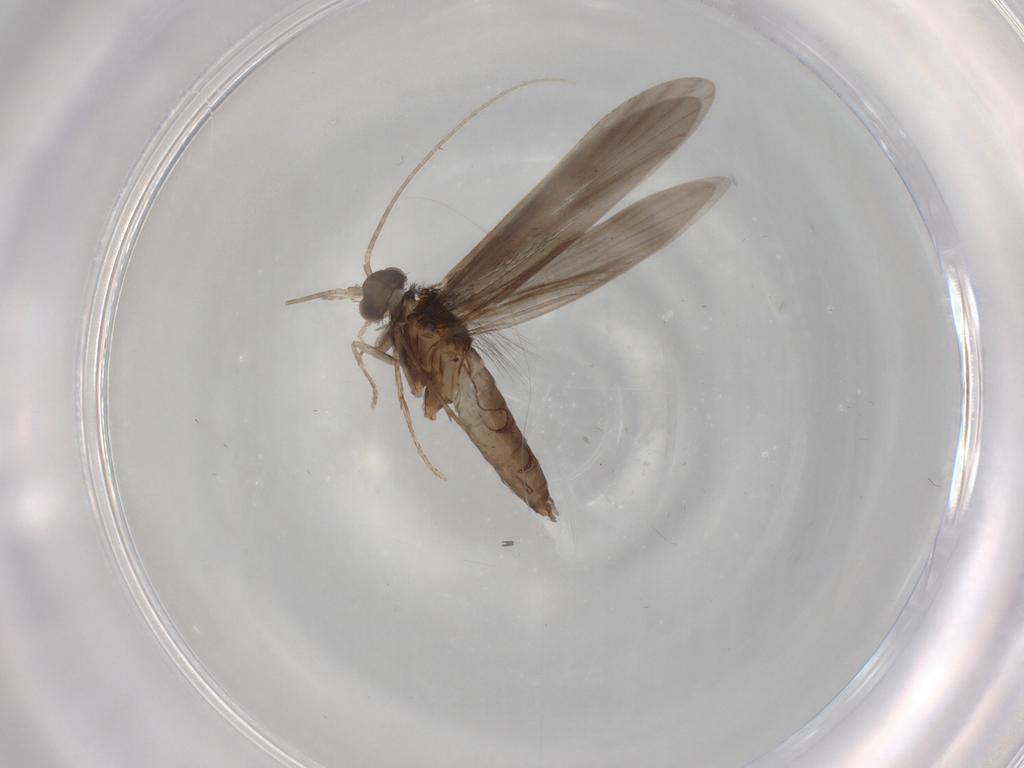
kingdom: Animalia
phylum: Arthropoda
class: Insecta
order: Trichoptera
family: Xiphocentronidae
